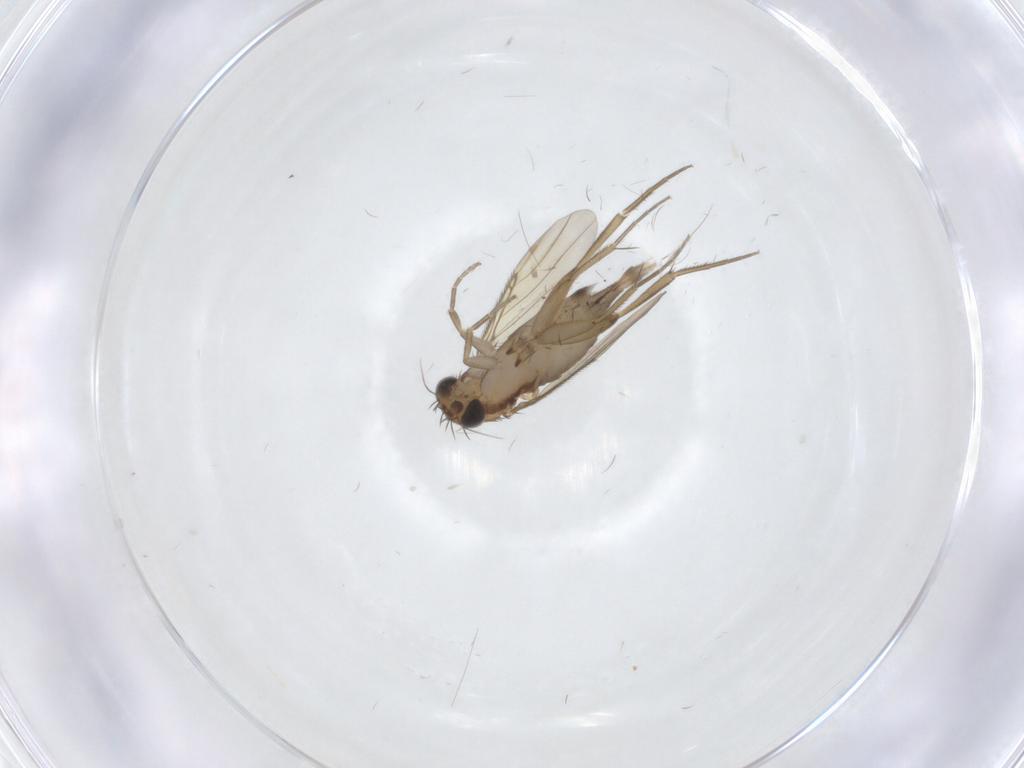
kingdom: Animalia
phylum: Arthropoda
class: Insecta
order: Diptera
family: Phoridae
